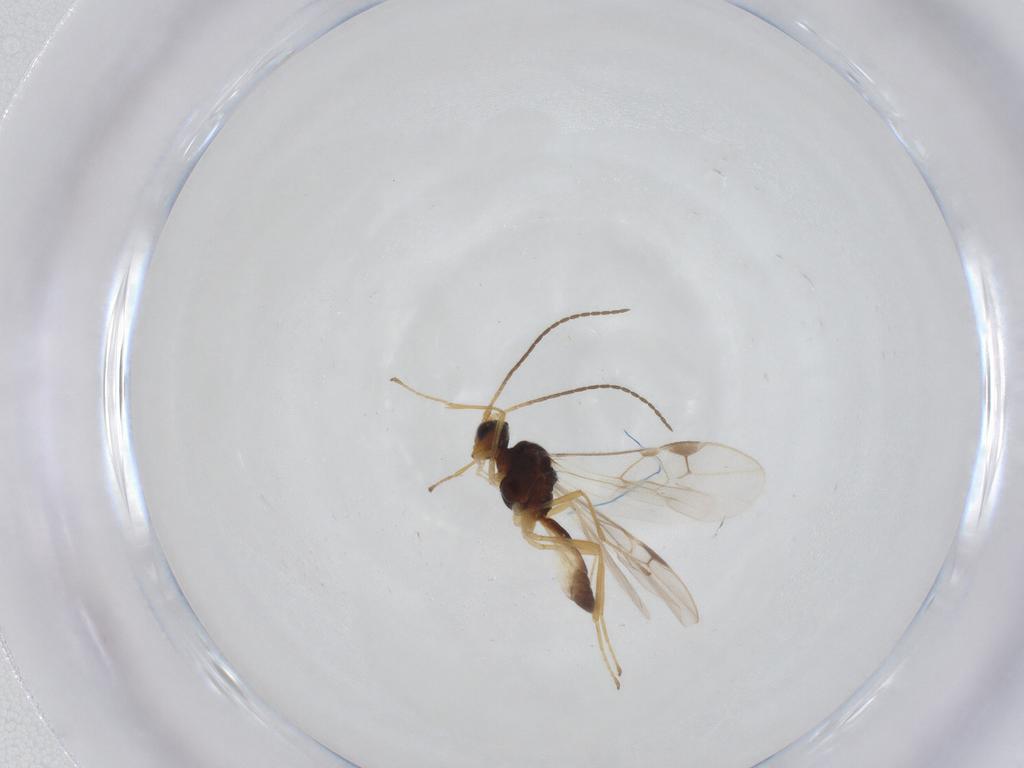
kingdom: Animalia
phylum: Arthropoda
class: Insecta
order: Hymenoptera
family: Braconidae
